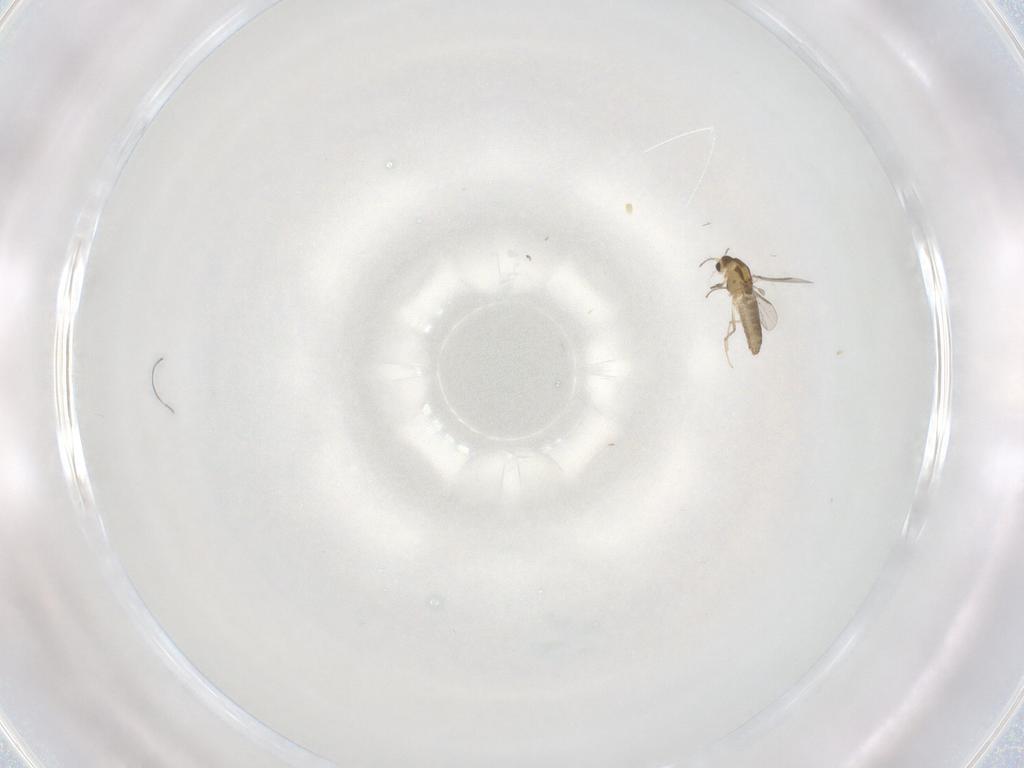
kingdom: Animalia
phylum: Arthropoda
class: Insecta
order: Diptera
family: Chironomidae
